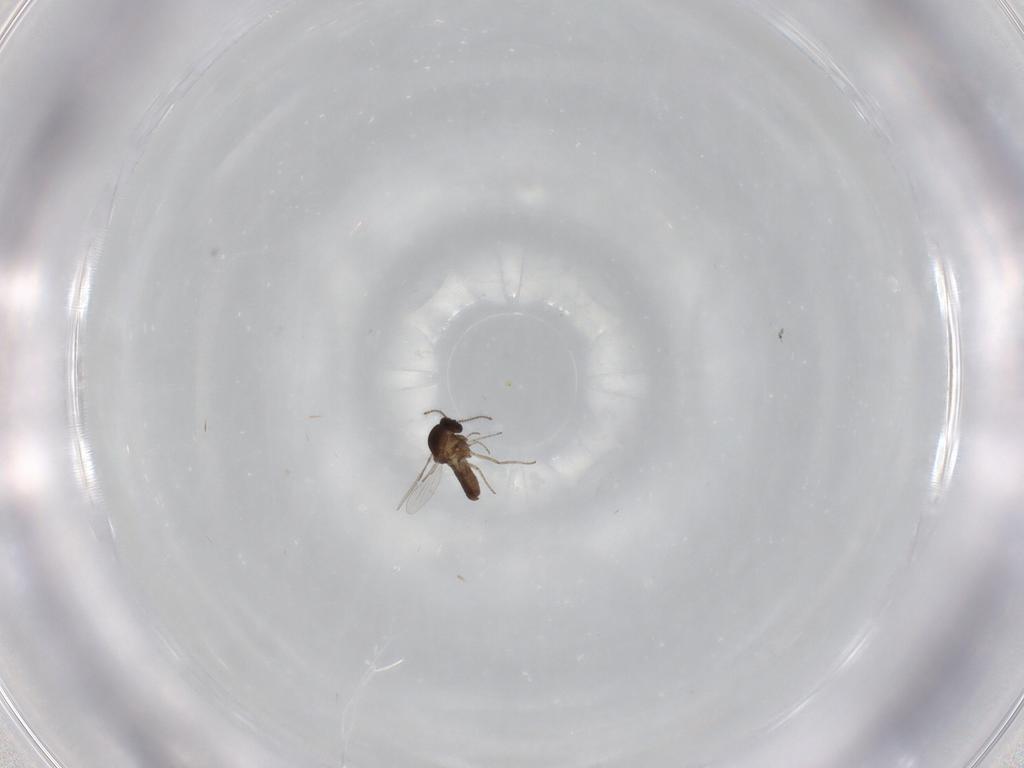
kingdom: Animalia
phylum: Arthropoda
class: Insecta
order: Diptera
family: Ceratopogonidae
